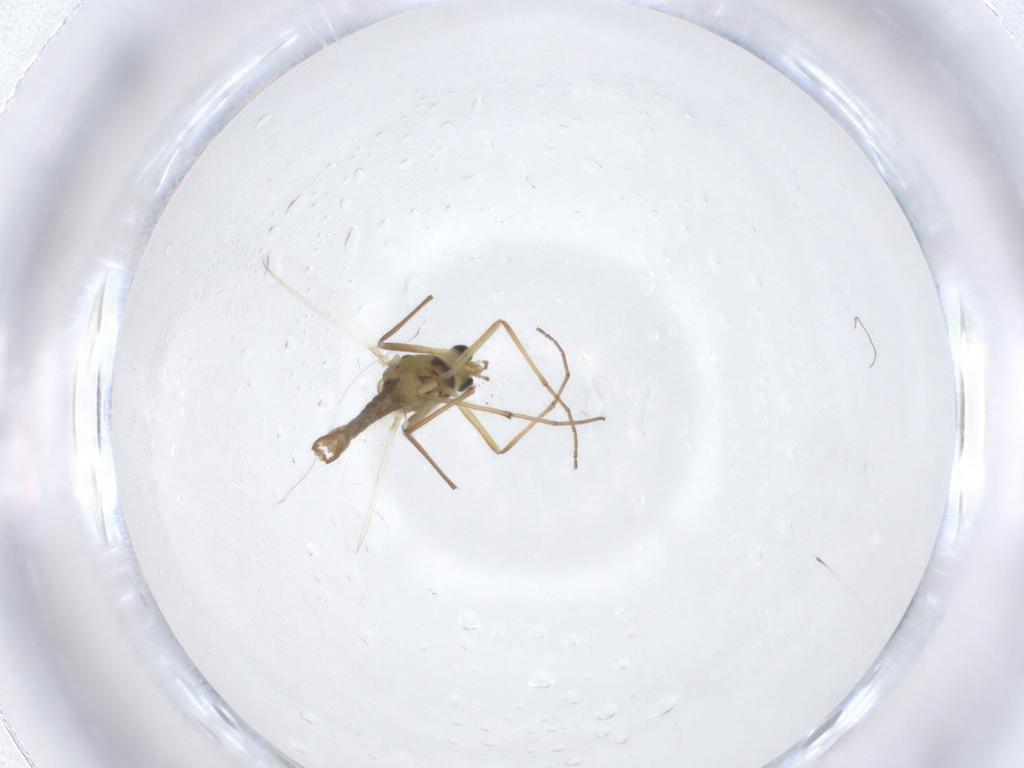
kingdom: Animalia
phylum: Arthropoda
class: Insecta
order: Diptera
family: Chironomidae
